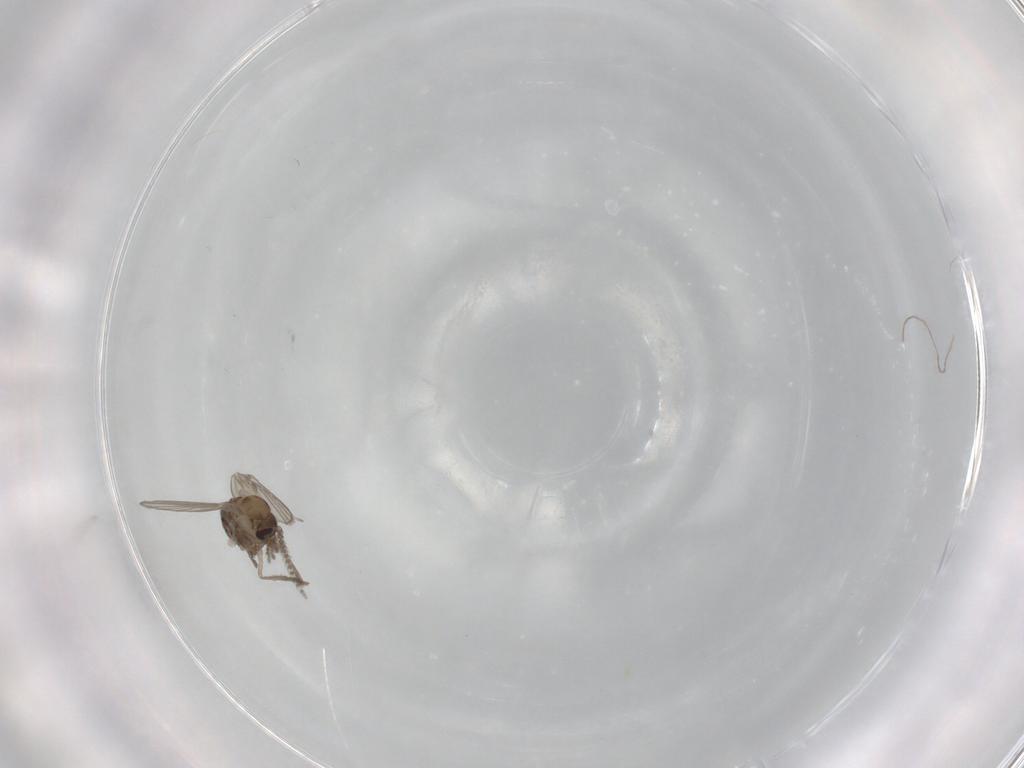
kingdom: Animalia
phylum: Arthropoda
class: Insecta
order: Diptera
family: Psychodidae
